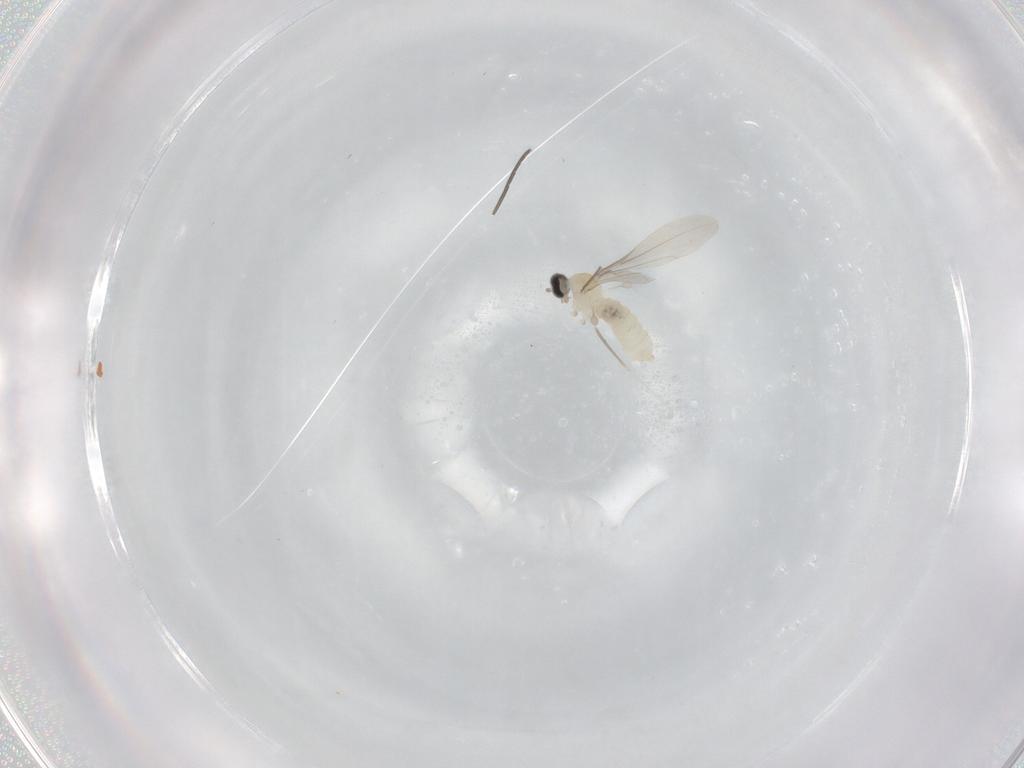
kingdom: Animalia
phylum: Arthropoda
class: Insecta
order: Diptera
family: Sciaridae
